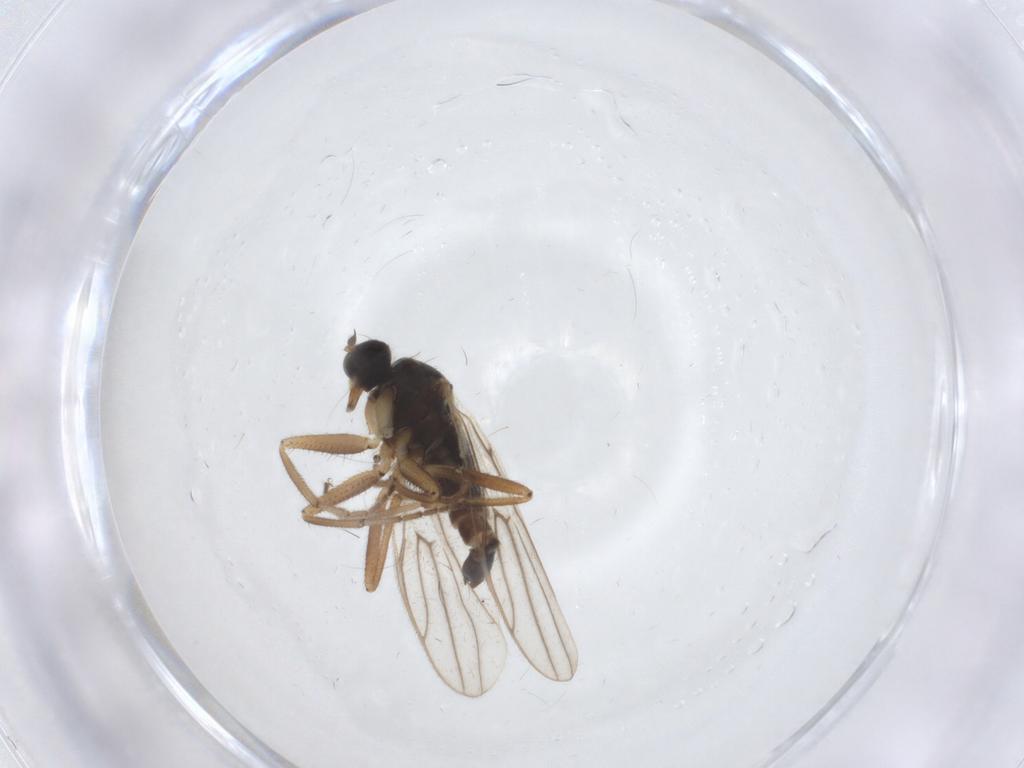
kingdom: Animalia
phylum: Arthropoda
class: Insecta
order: Diptera
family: Hybotidae
